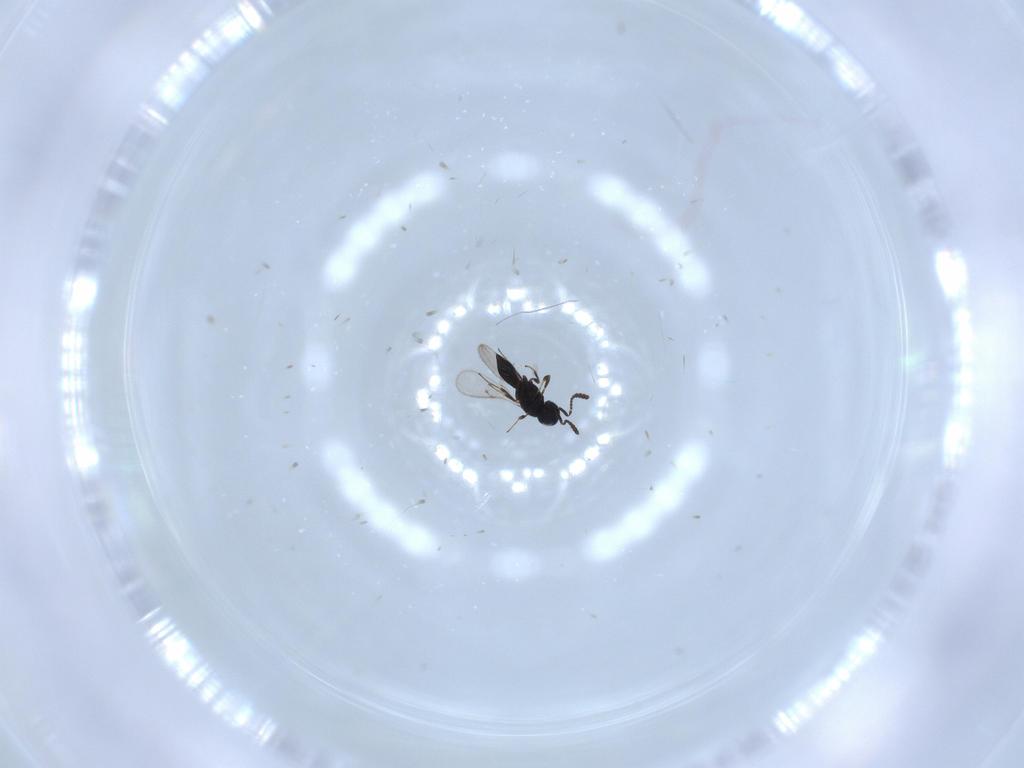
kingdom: Animalia
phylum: Arthropoda
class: Insecta
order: Hymenoptera
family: Scelionidae
